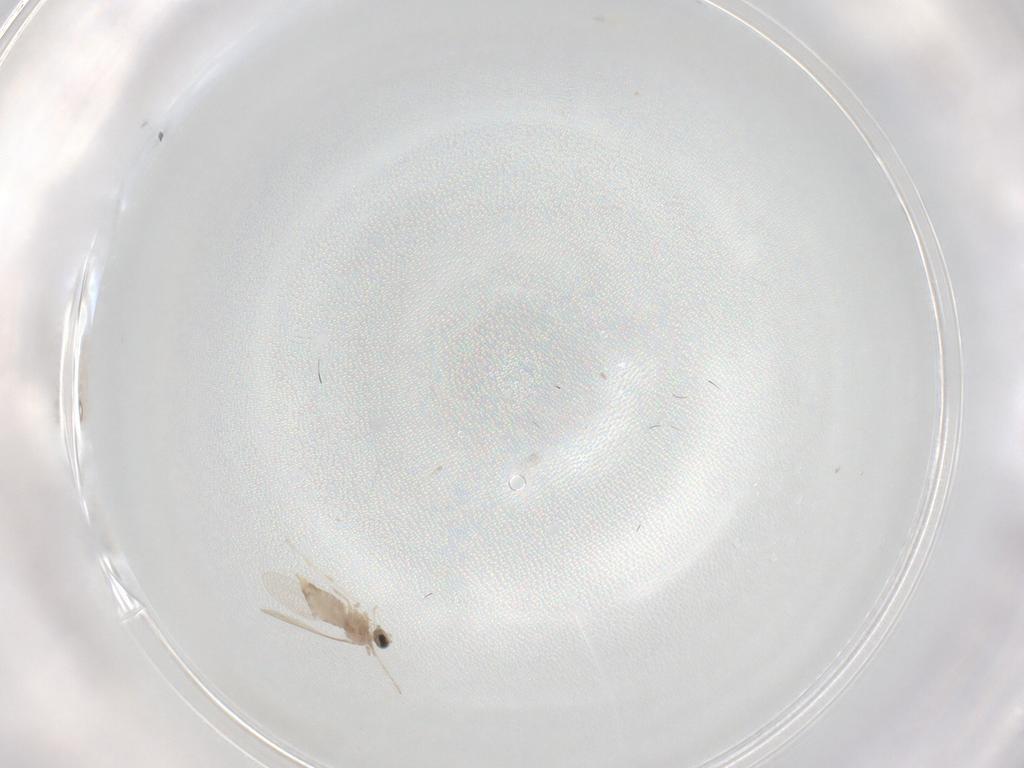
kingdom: Animalia
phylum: Arthropoda
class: Insecta
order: Diptera
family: Cecidomyiidae
